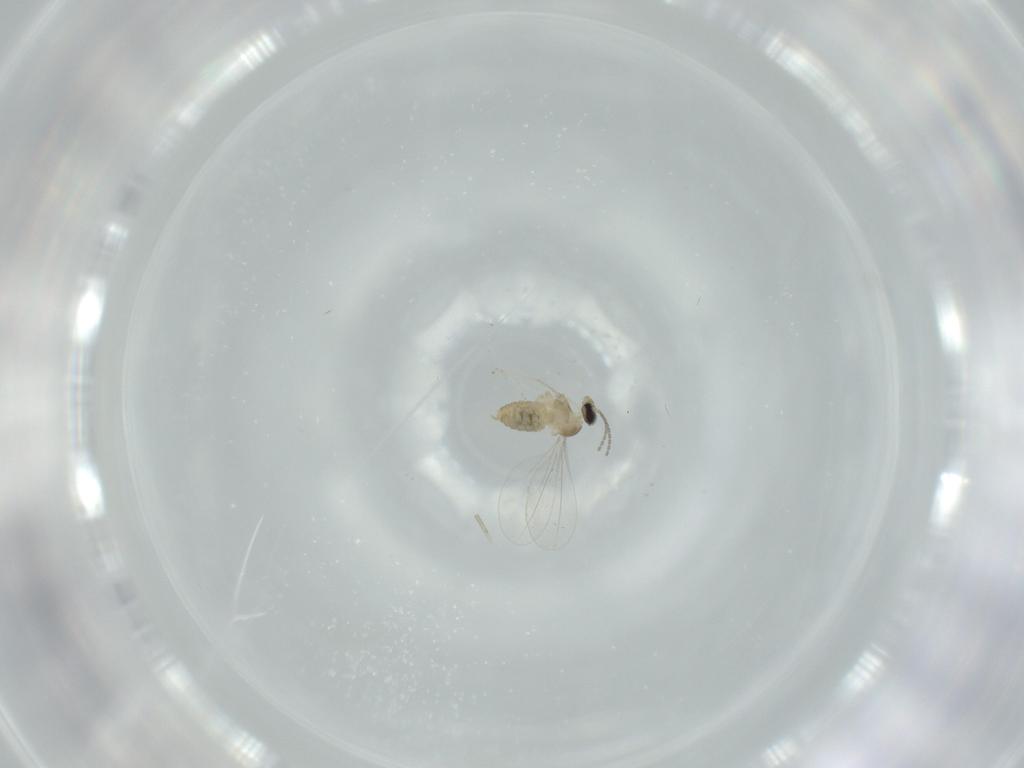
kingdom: Animalia
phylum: Arthropoda
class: Insecta
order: Diptera
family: Cecidomyiidae
